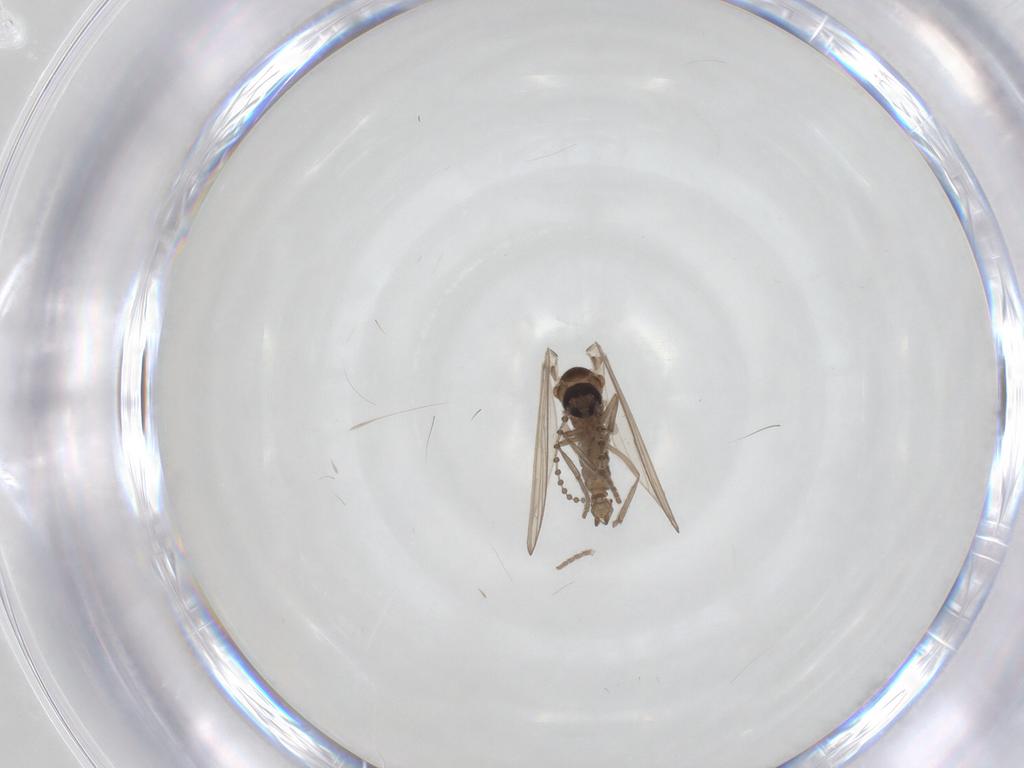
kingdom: Animalia
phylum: Arthropoda
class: Insecta
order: Diptera
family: Psychodidae
